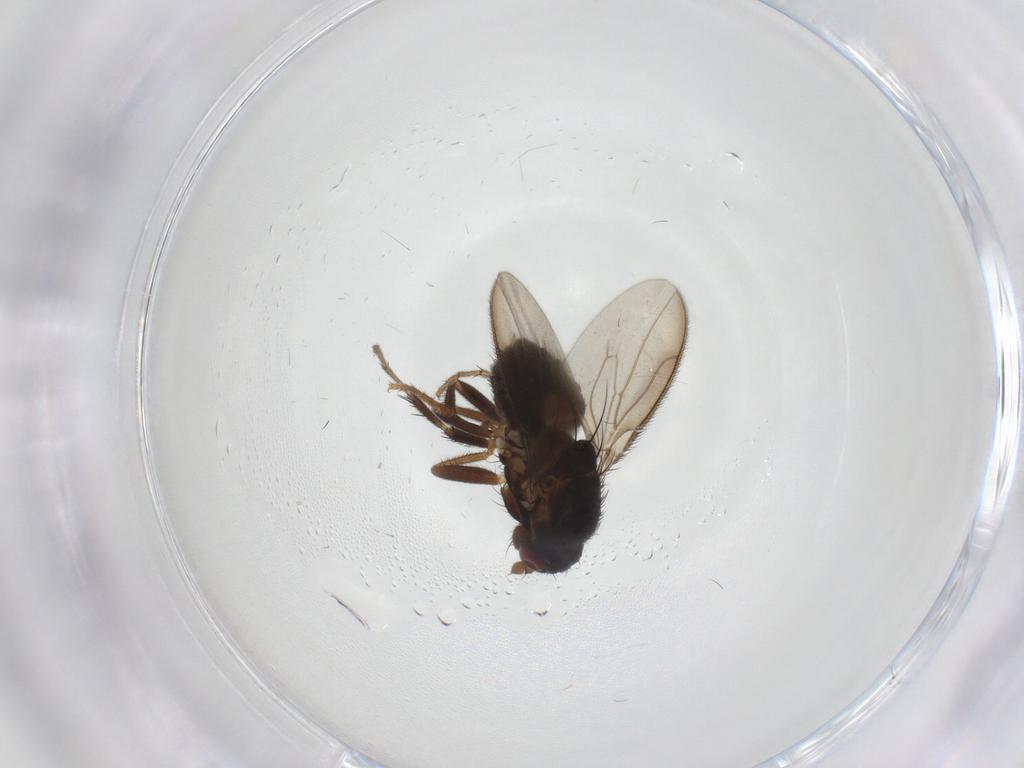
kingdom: Animalia
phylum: Arthropoda
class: Insecta
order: Diptera
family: Sphaeroceridae
